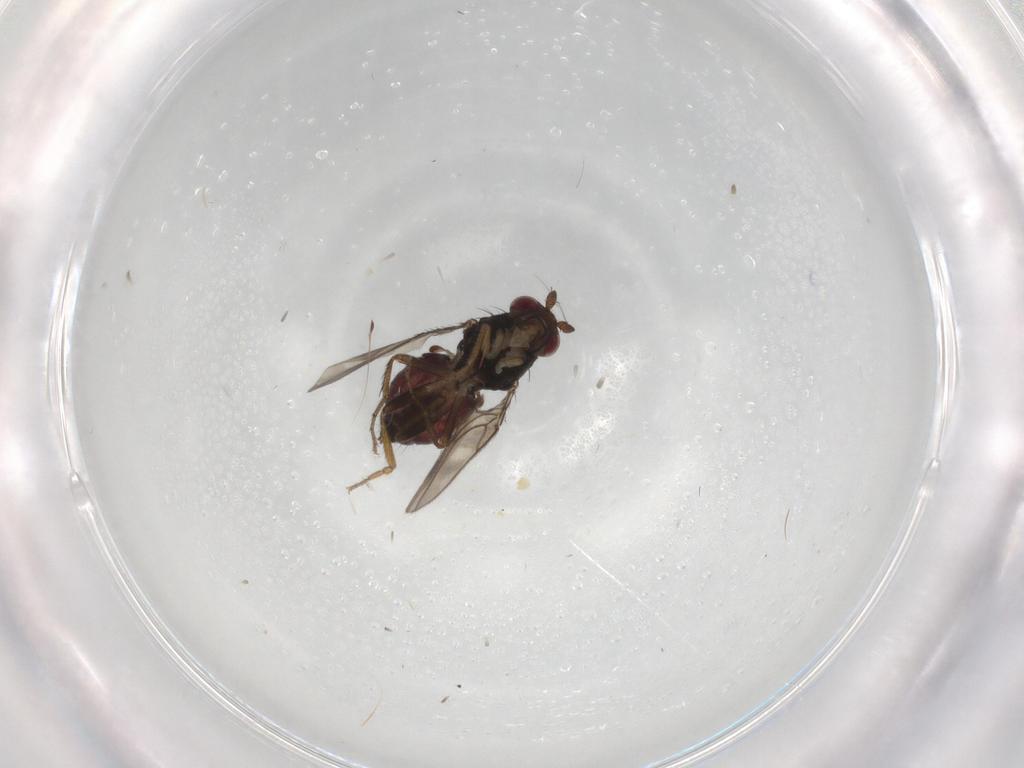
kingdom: Animalia
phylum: Arthropoda
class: Insecta
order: Diptera
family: Sphaeroceridae
